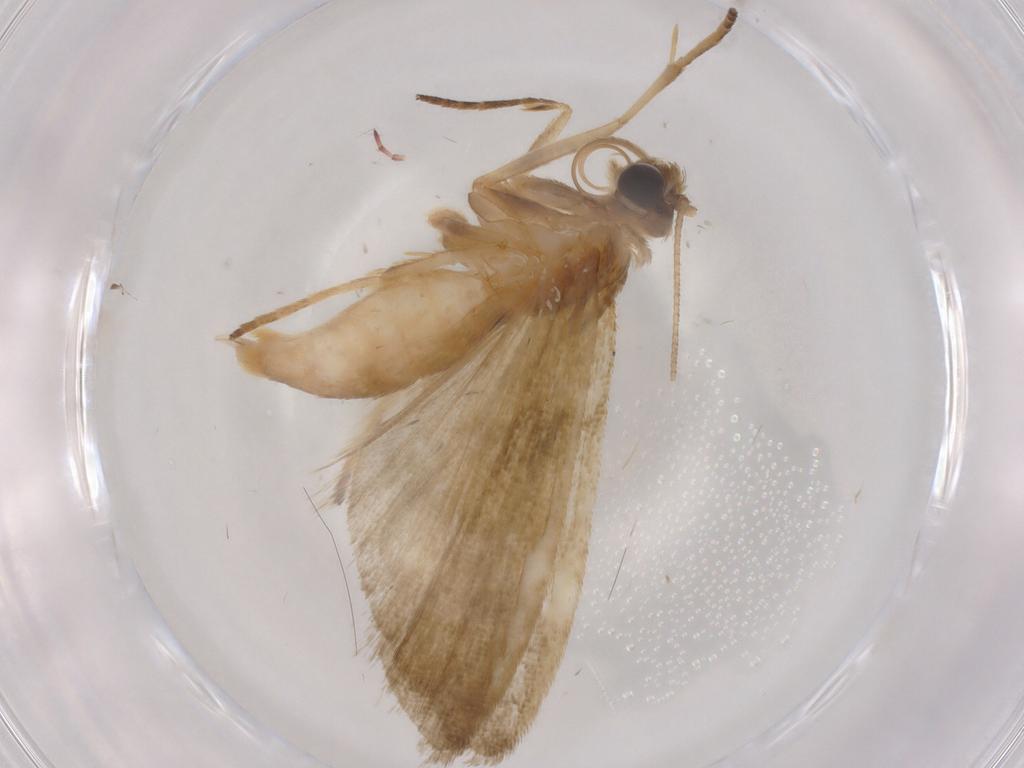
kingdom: Animalia
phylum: Arthropoda
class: Insecta
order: Lepidoptera
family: Noctuidae
